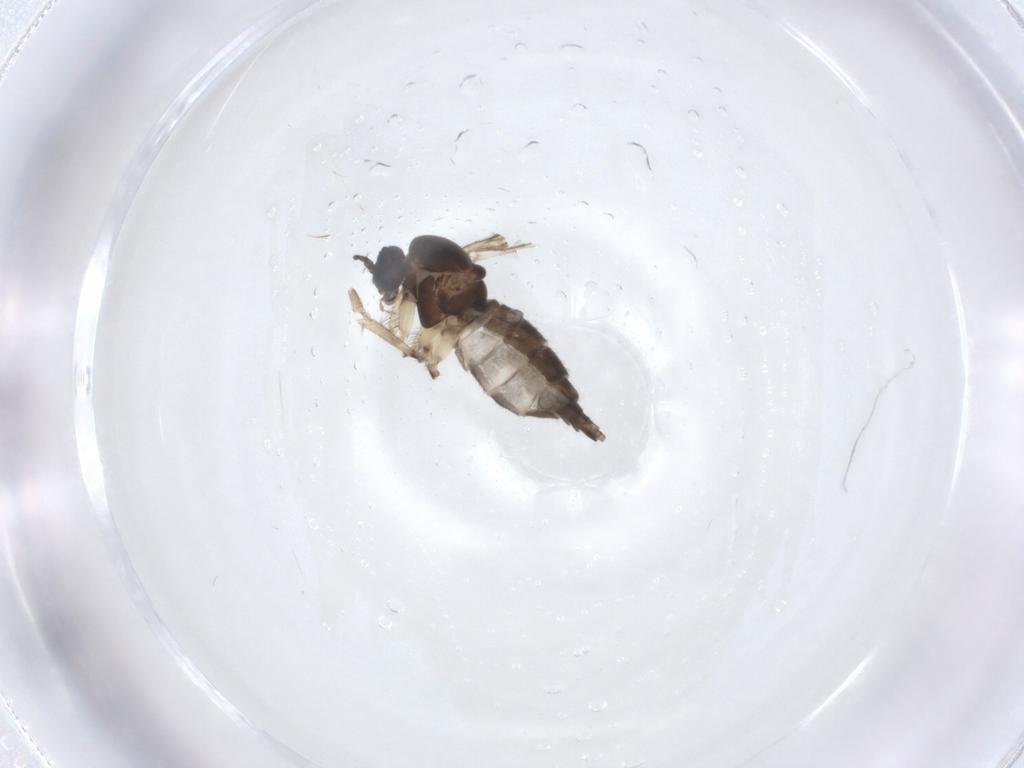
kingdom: Animalia
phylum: Arthropoda
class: Insecta
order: Diptera
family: Sciaridae
